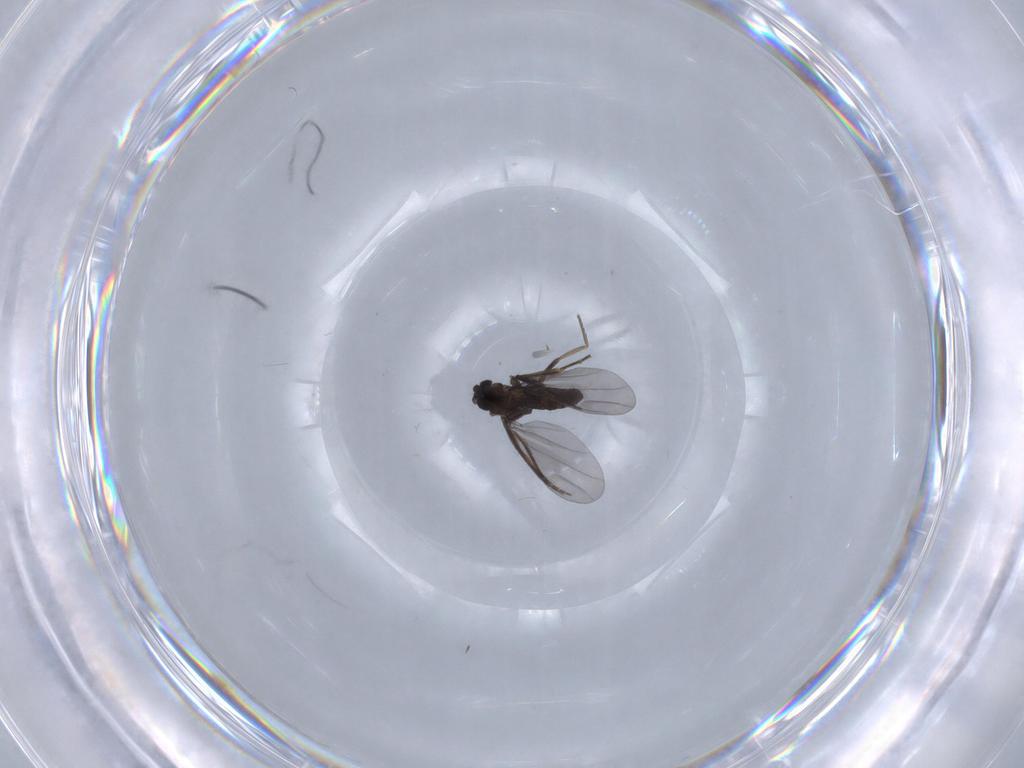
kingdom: Animalia
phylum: Arthropoda
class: Insecta
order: Diptera
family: Phoridae
